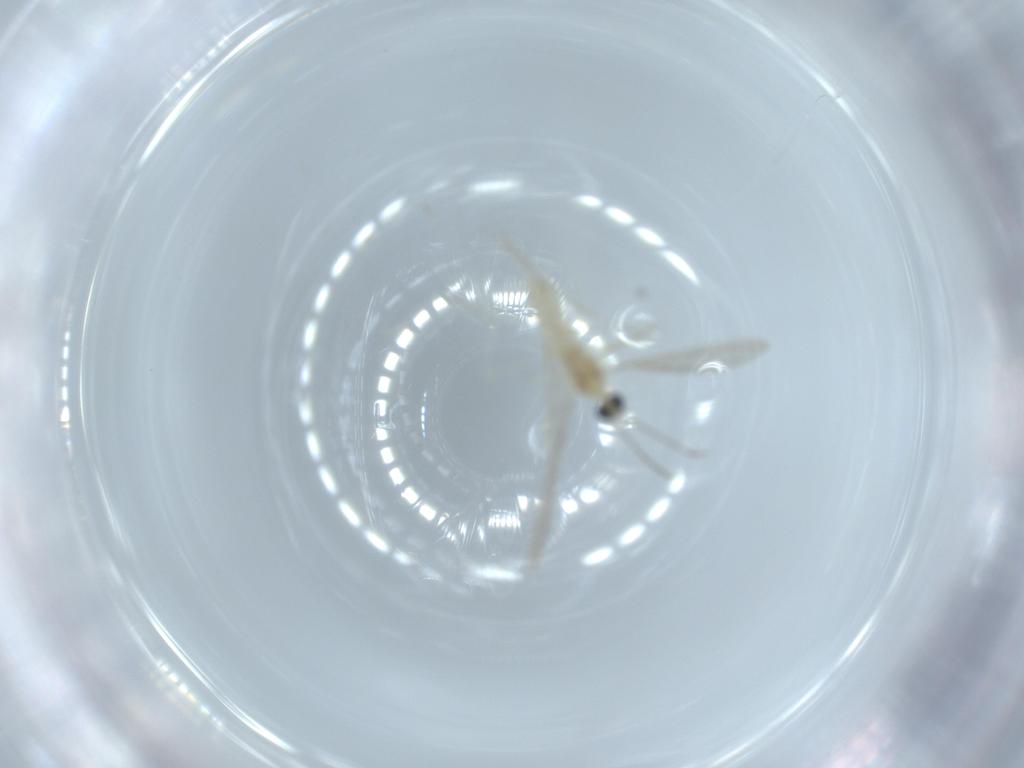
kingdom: Animalia
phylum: Arthropoda
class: Insecta
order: Diptera
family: Cecidomyiidae
